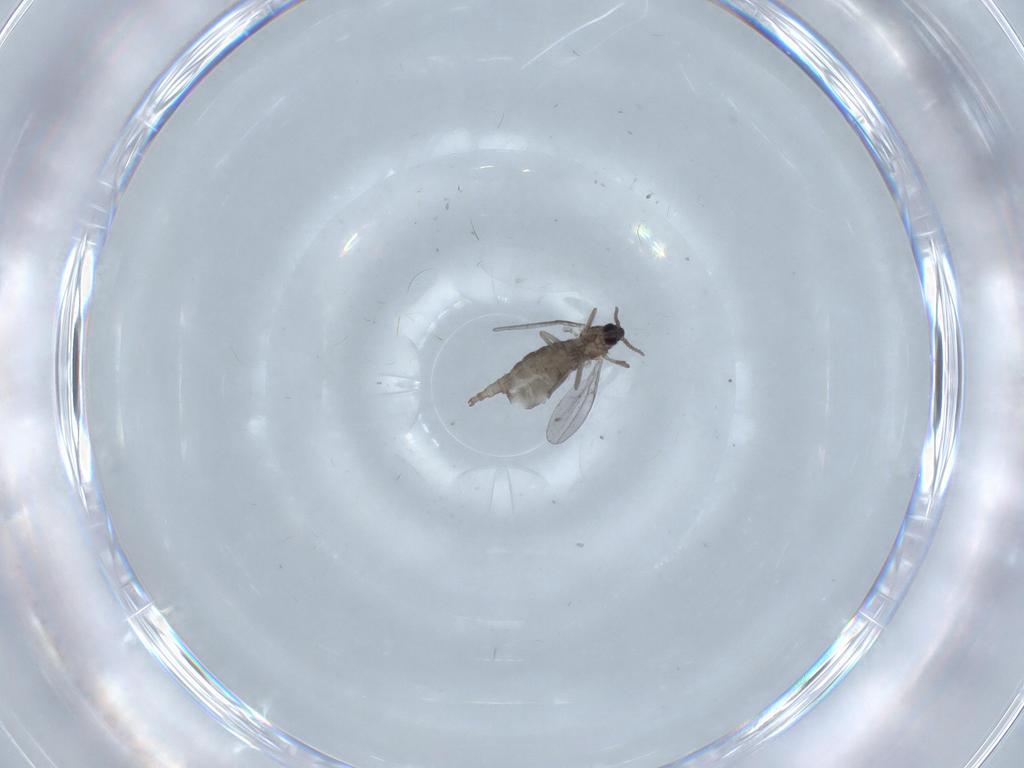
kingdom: Animalia
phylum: Arthropoda
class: Insecta
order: Diptera
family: Cecidomyiidae
